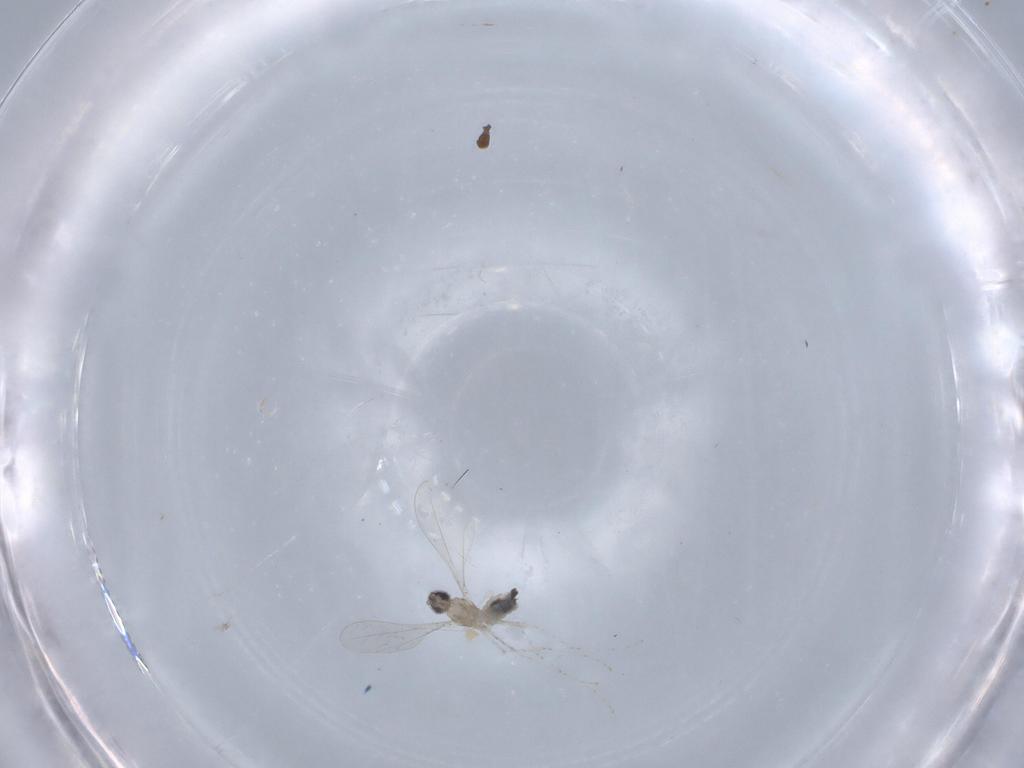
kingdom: Animalia
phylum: Arthropoda
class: Insecta
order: Diptera
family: Cecidomyiidae
